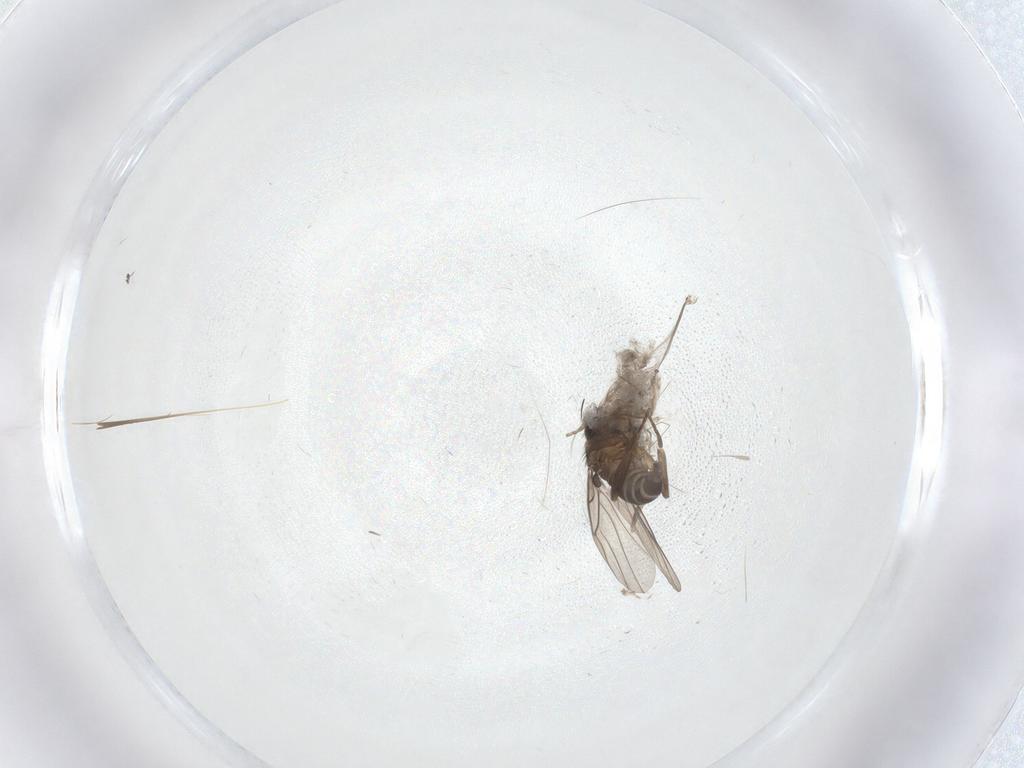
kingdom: Animalia
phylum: Arthropoda
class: Insecta
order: Diptera
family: Phoridae
